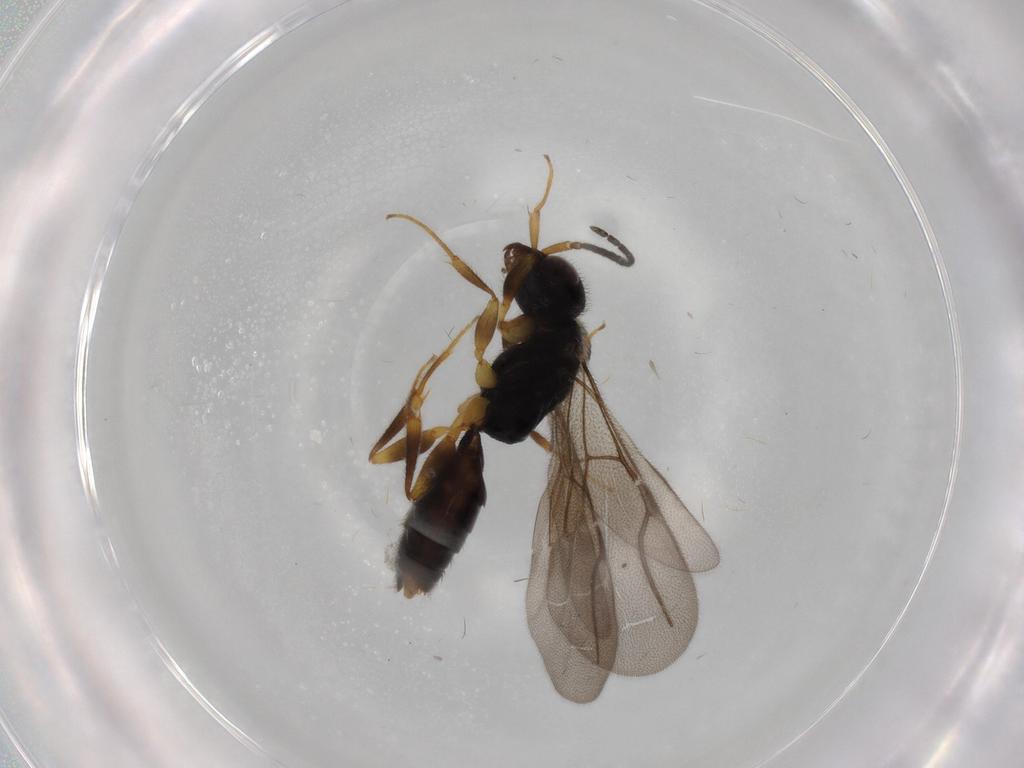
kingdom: Animalia
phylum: Arthropoda
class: Insecta
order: Hymenoptera
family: Bethylidae
